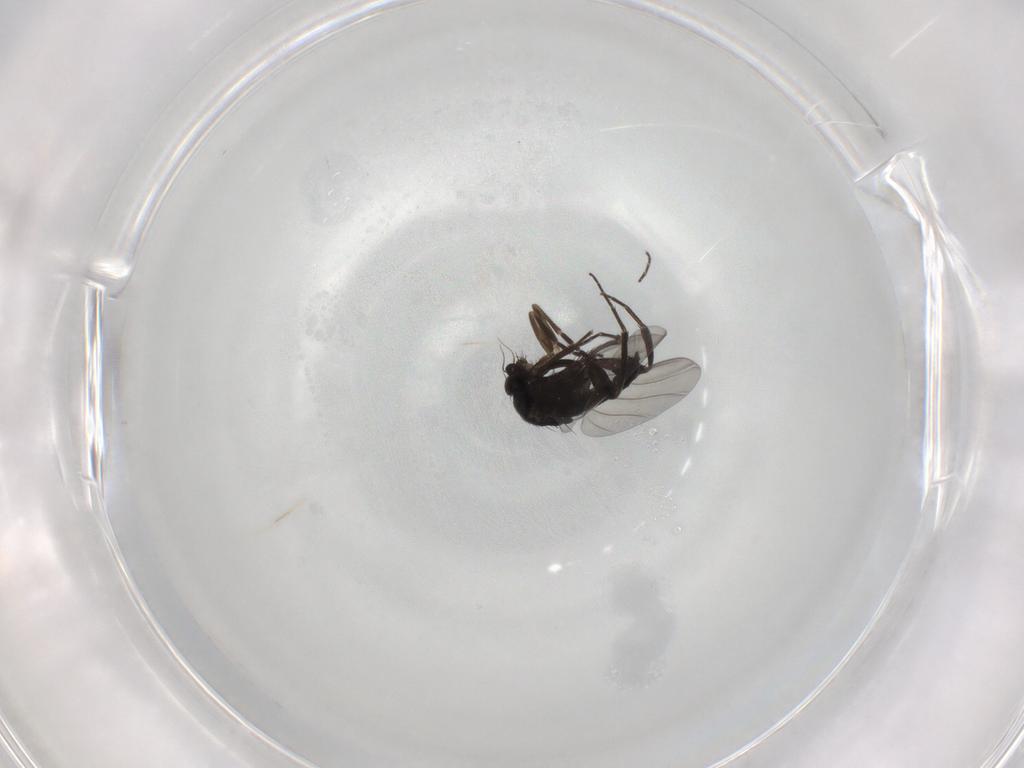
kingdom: Animalia
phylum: Arthropoda
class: Insecta
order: Diptera
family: Phoridae
